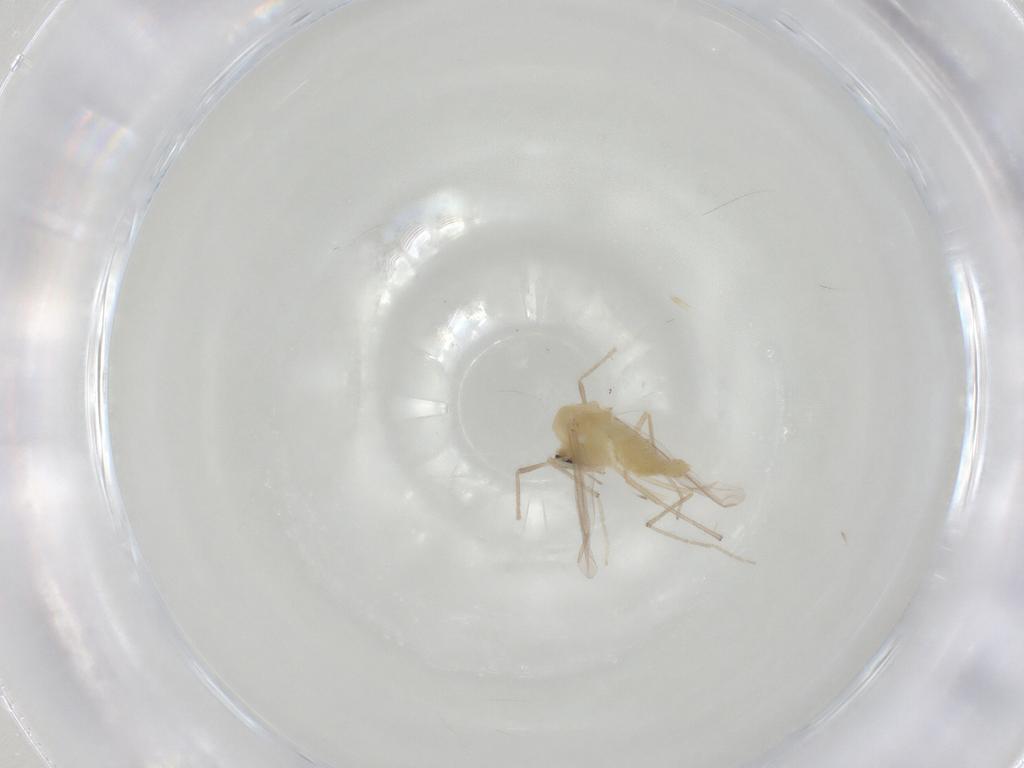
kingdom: Animalia
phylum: Arthropoda
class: Insecta
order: Diptera
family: Chironomidae
